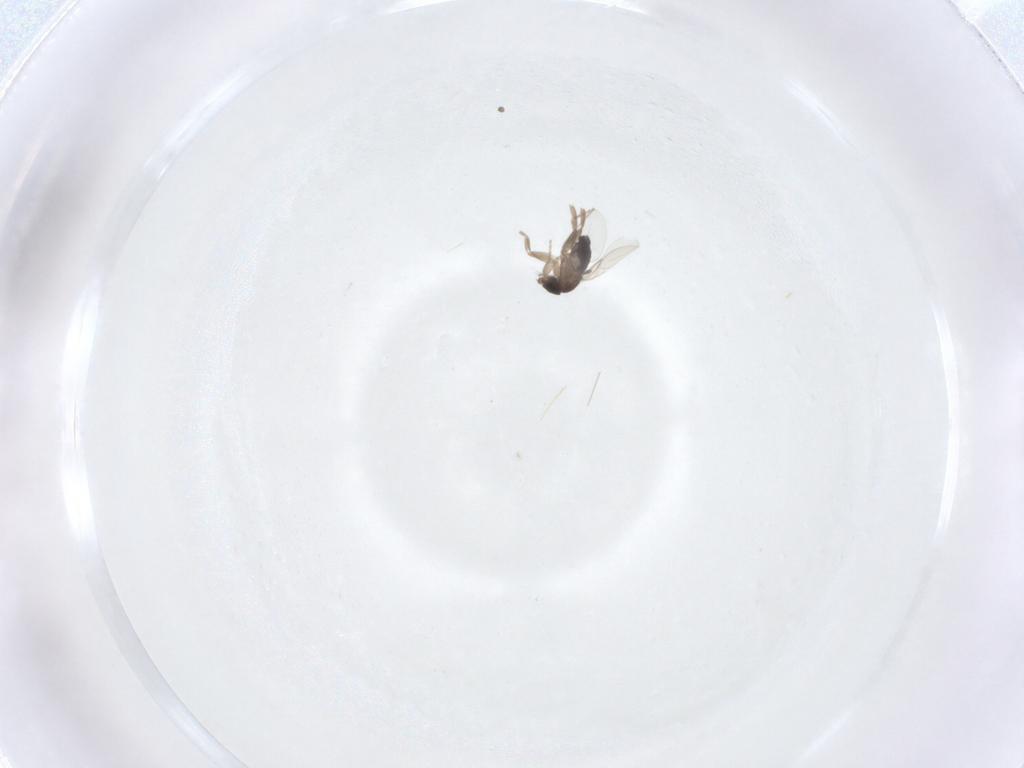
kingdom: Animalia
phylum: Arthropoda
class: Insecta
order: Diptera
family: Phoridae
